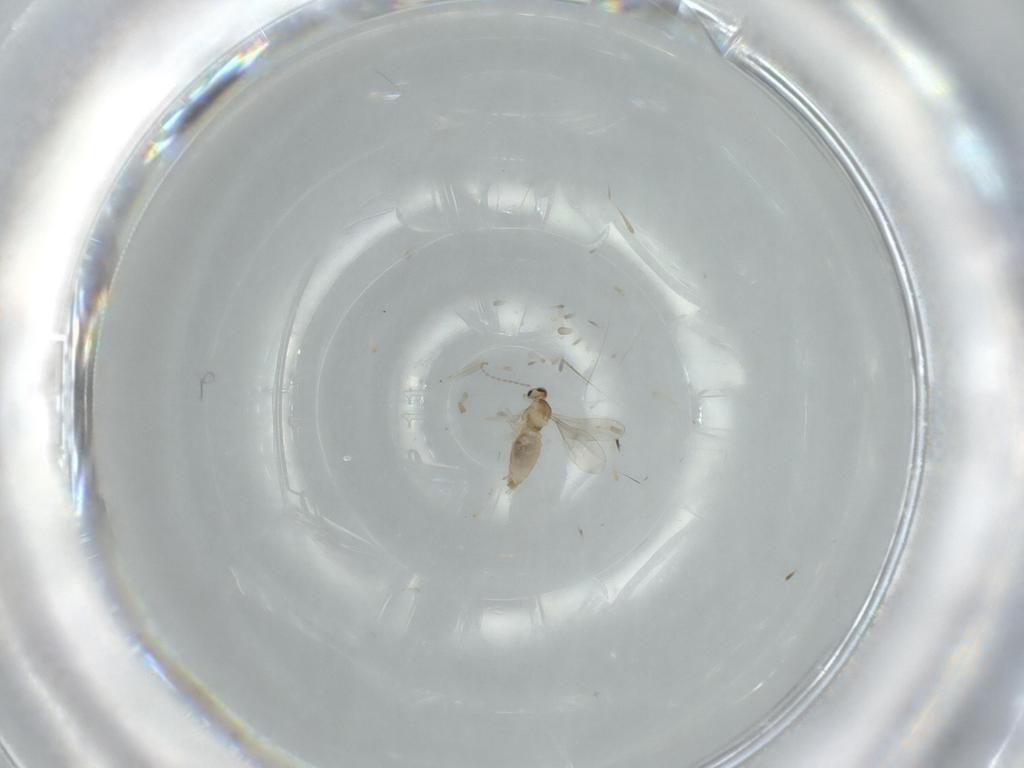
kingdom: Animalia
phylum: Arthropoda
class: Insecta
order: Diptera
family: Cecidomyiidae
